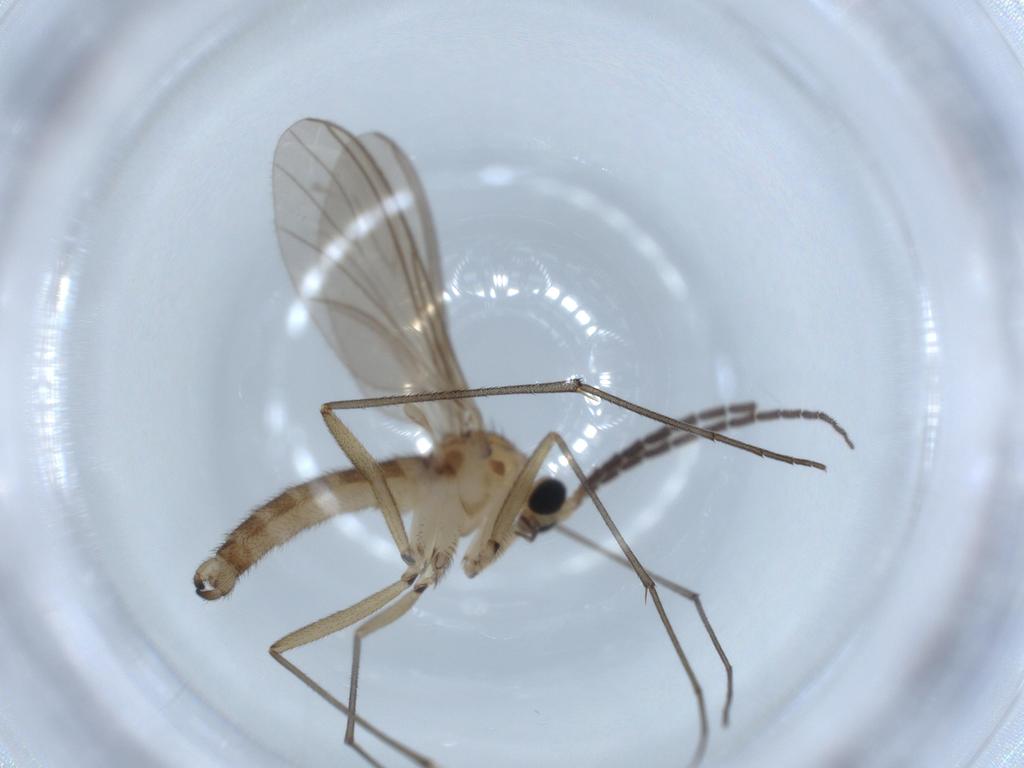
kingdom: Animalia
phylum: Arthropoda
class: Insecta
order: Diptera
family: Sciaridae
